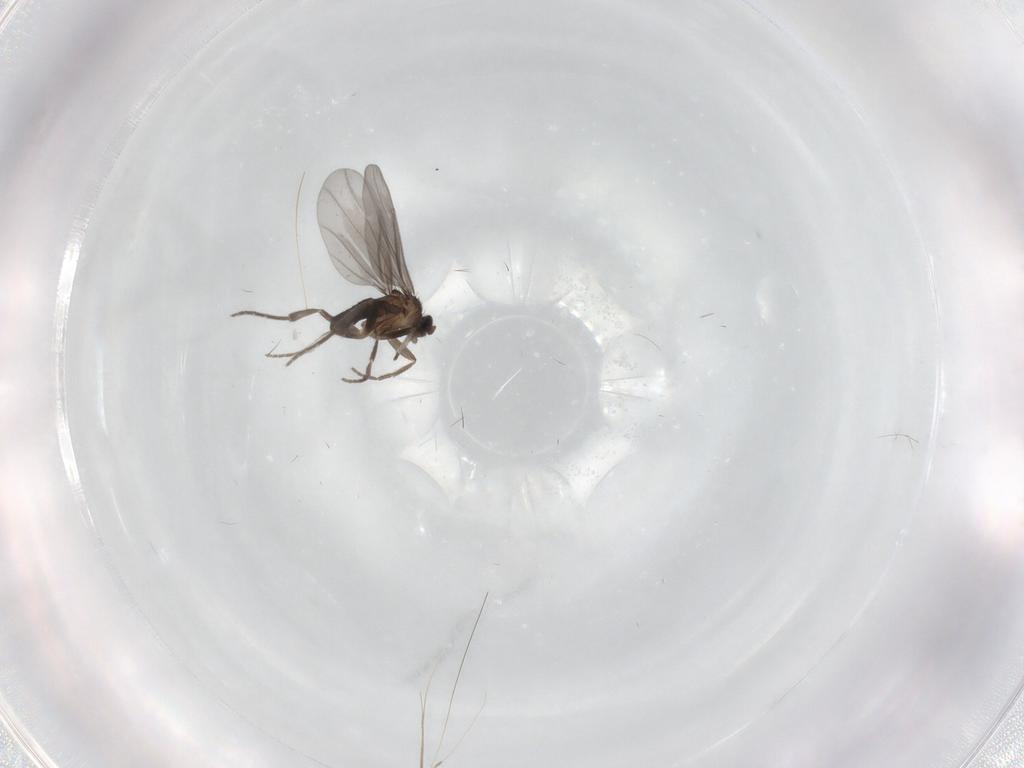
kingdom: Animalia
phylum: Arthropoda
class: Insecta
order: Diptera
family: Phoridae
